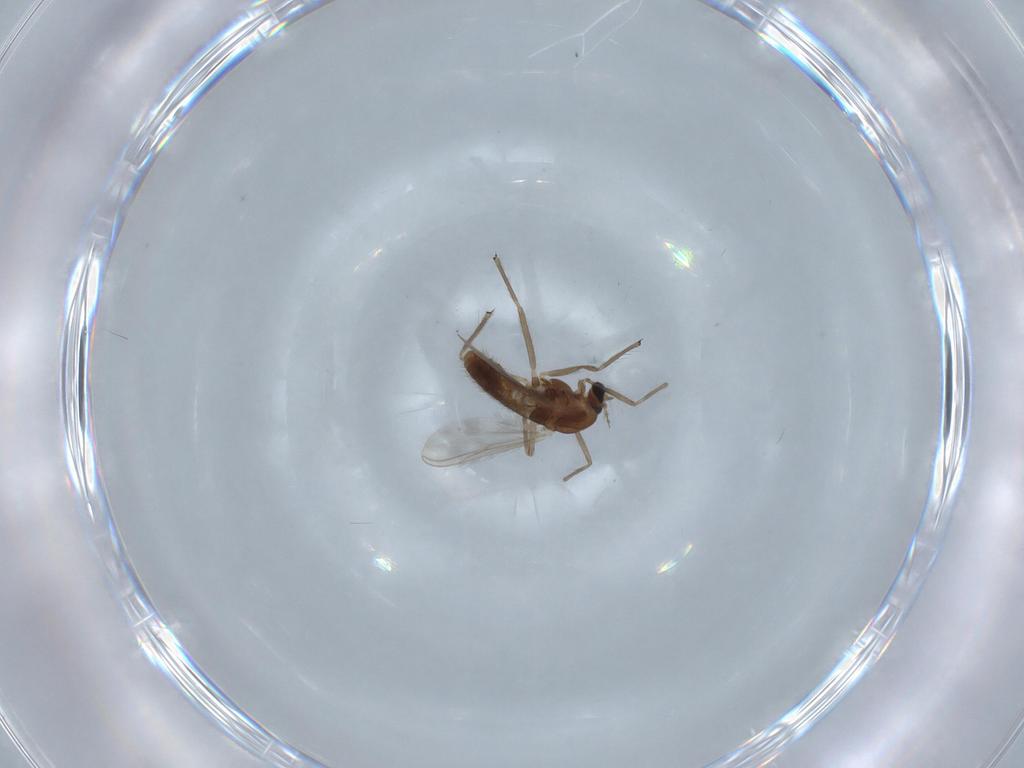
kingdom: Animalia
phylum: Arthropoda
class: Insecta
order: Diptera
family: Chironomidae
